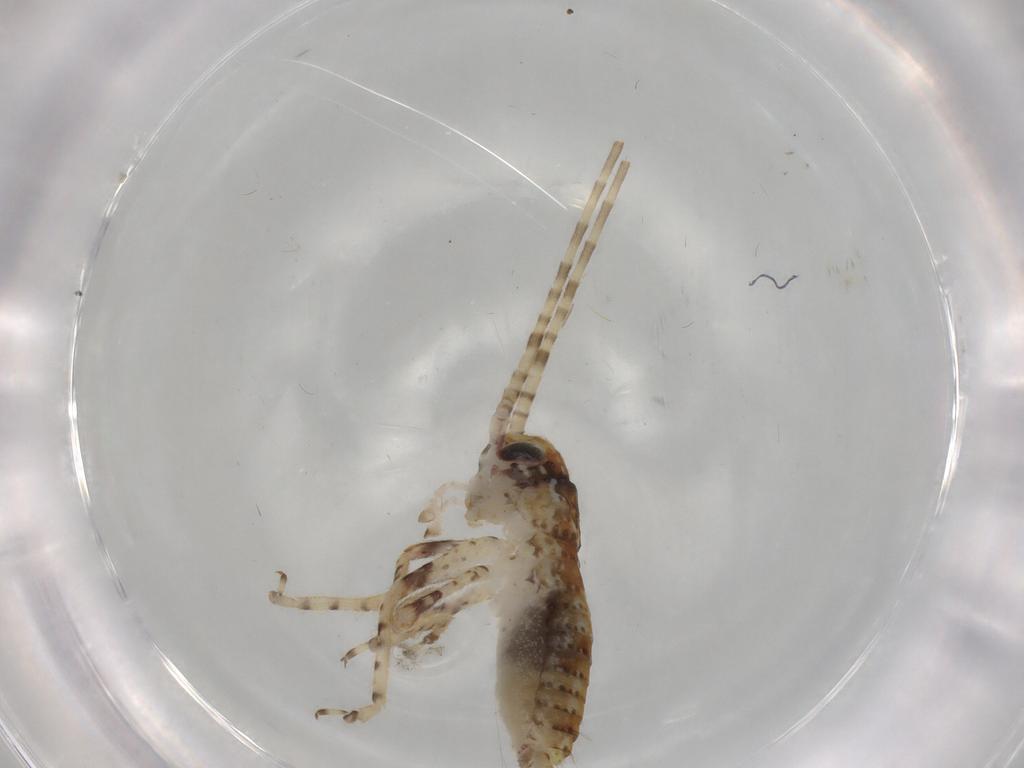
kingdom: Animalia
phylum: Arthropoda
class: Insecta
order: Orthoptera
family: Gryllidae
